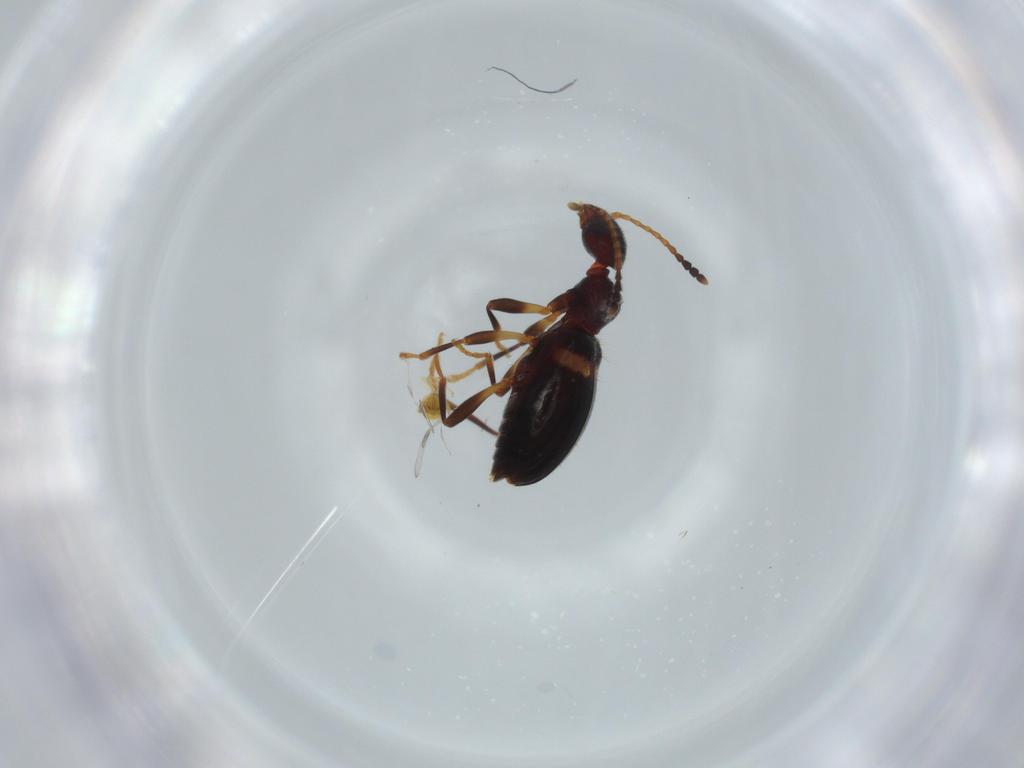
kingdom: Animalia
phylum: Arthropoda
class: Insecta
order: Coleoptera
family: Anthicidae
